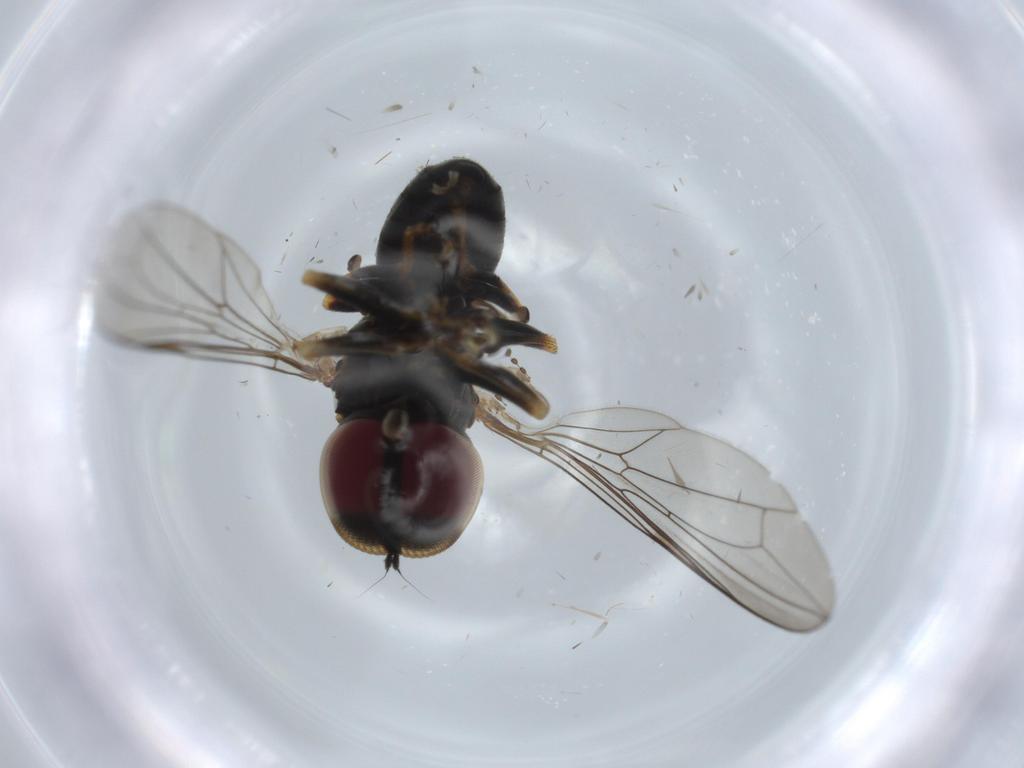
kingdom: Animalia
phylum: Arthropoda
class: Insecta
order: Diptera
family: Pipunculidae
